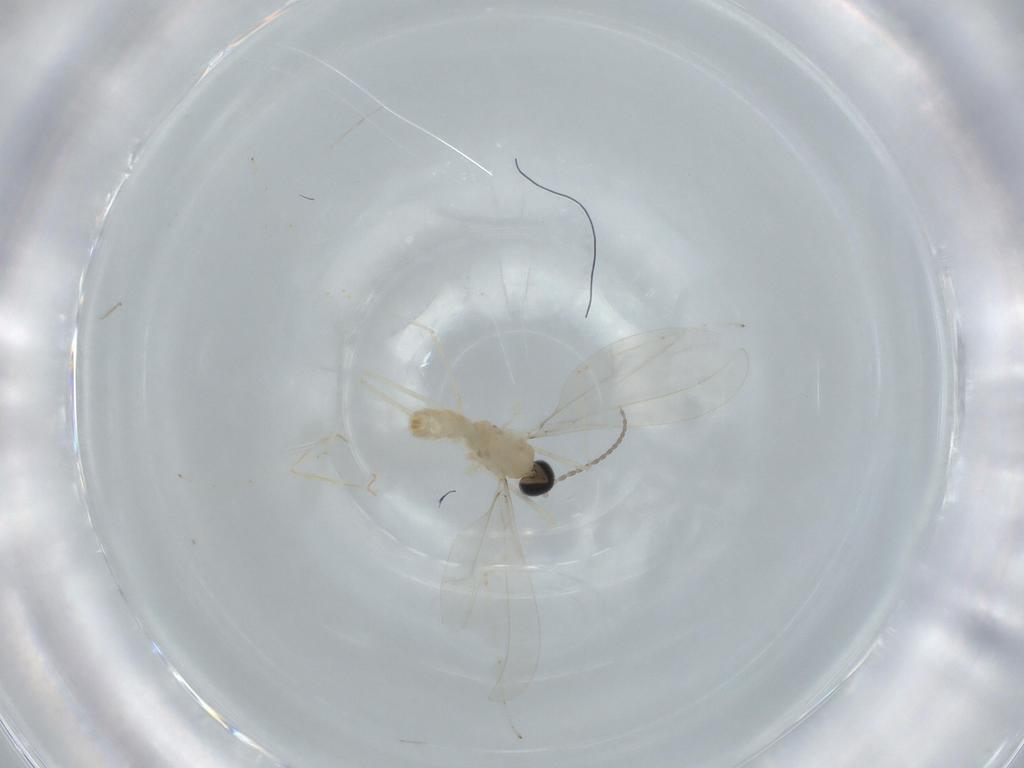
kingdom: Animalia
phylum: Arthropoda
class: Insecta
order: Diptera
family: Cecidomyiidae
